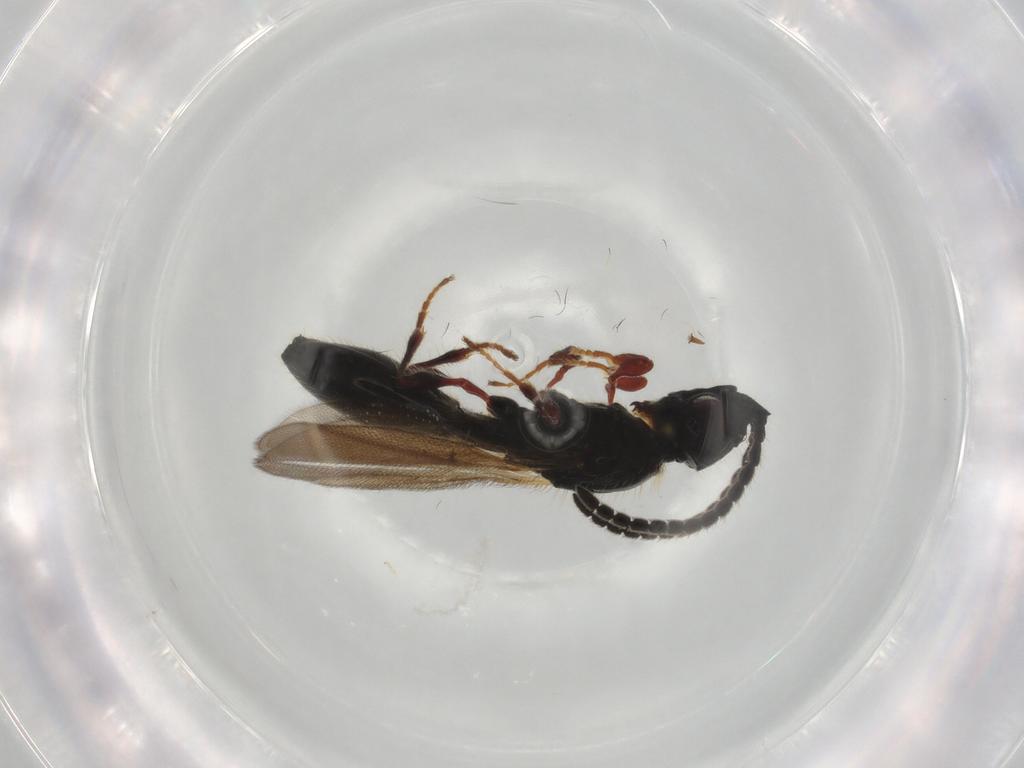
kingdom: Animalia
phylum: Arthropoda
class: Insecta
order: Hymenoptera
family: Diapriidae
